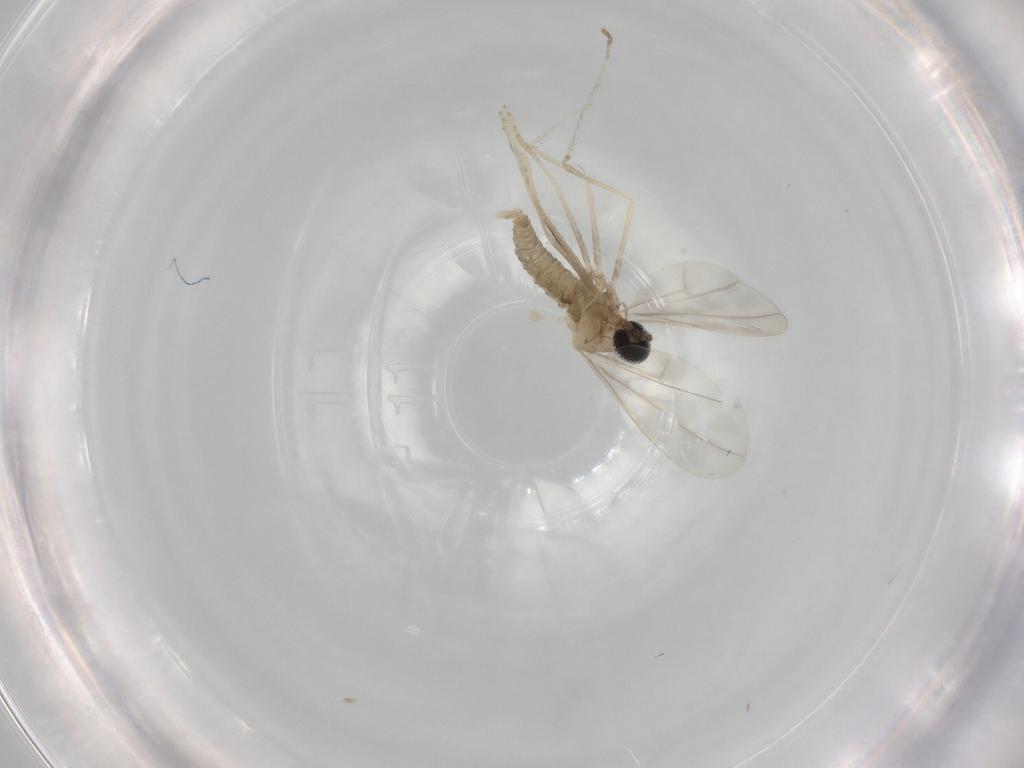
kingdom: Animalia
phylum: Arthropoda
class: Insecta
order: Diptera
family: Cecidomyiidae
